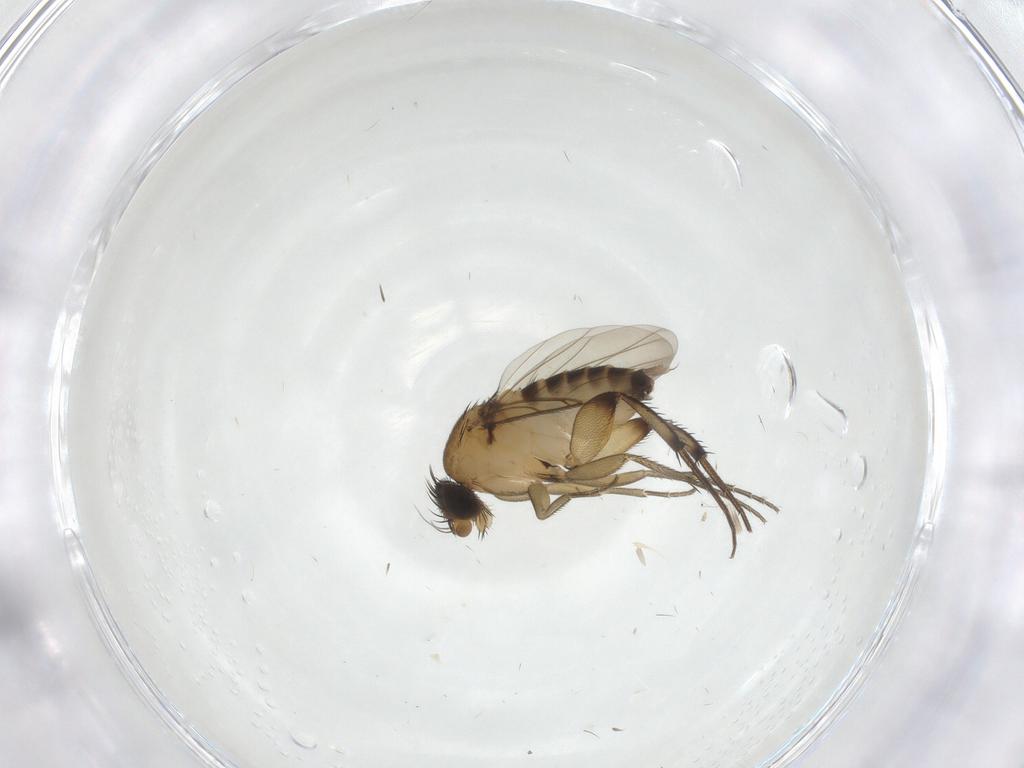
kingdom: Animalia
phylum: Arthropoda
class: Insecta
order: Diptera
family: Phoridae
